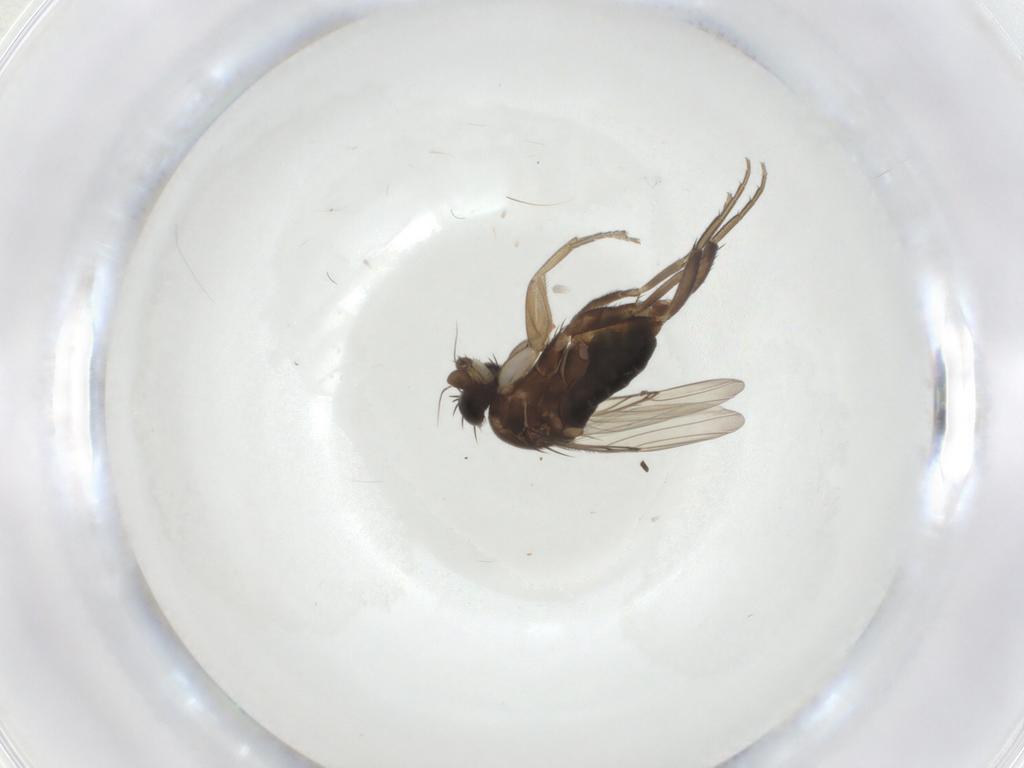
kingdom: Animalia
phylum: Arthropoda
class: Insecta
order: Diptera
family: Phoridae
